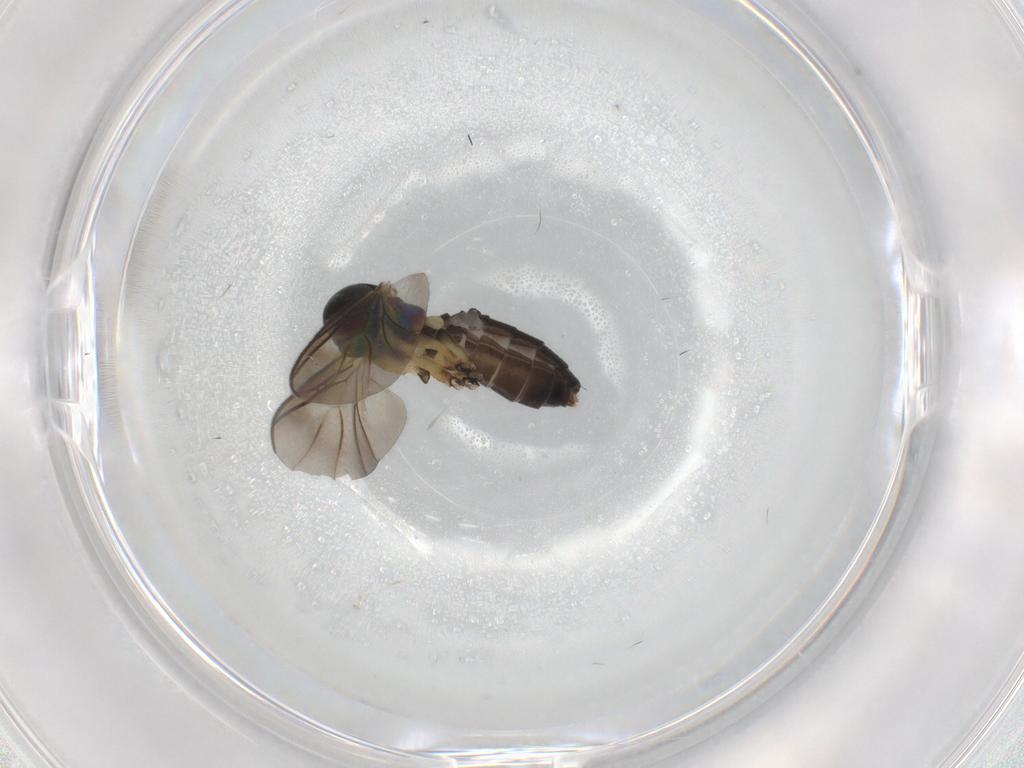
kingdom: Animalia
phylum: Arthropoda
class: Insecta
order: Diptera
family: Mycetophilidae
